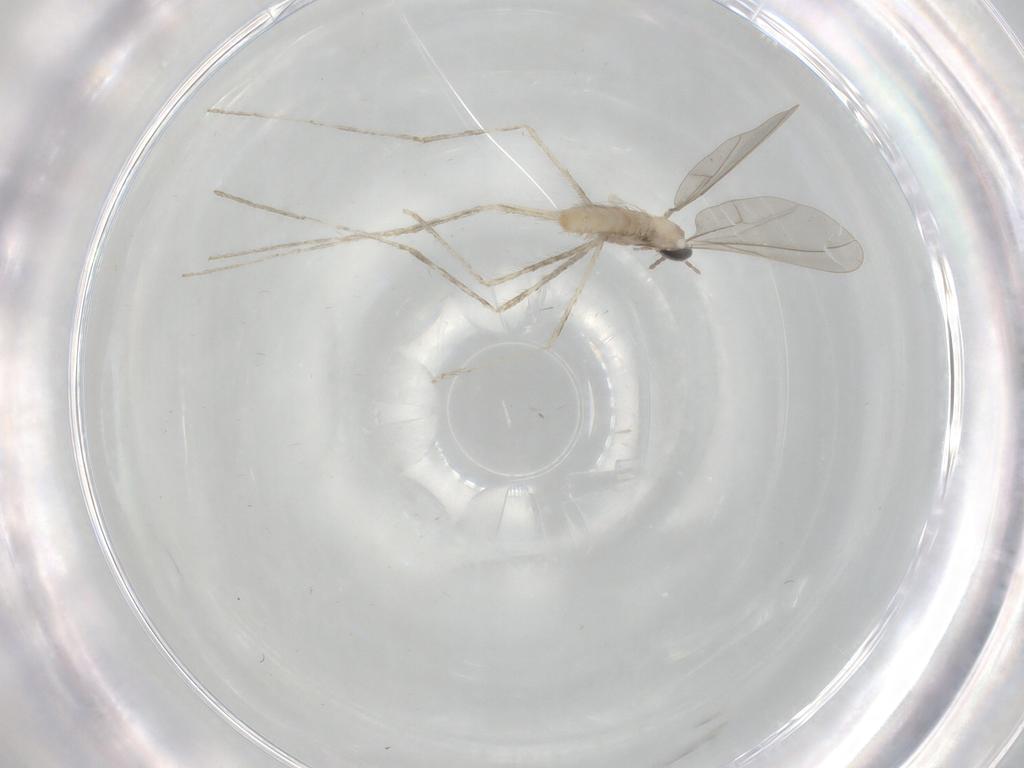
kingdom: Animalia
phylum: Arthropoda
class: Insecta
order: Diptera
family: Cecidomyiidae
